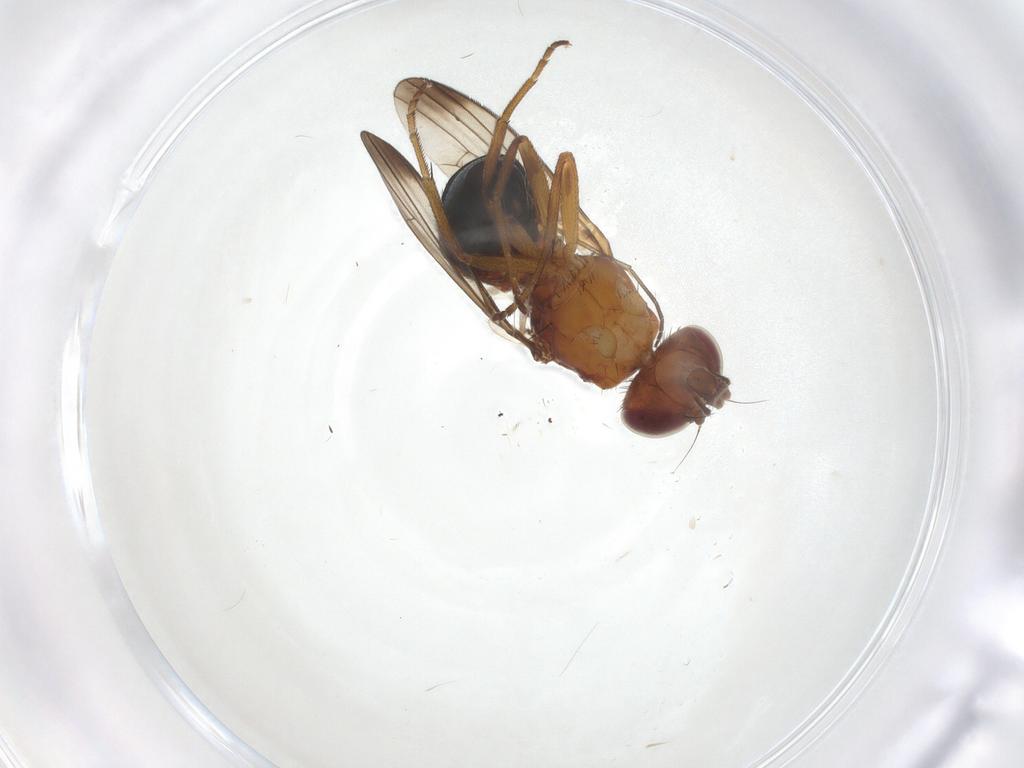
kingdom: Animalia
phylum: Arthropoda
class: Insecta
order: Diptera
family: Piophilidae
